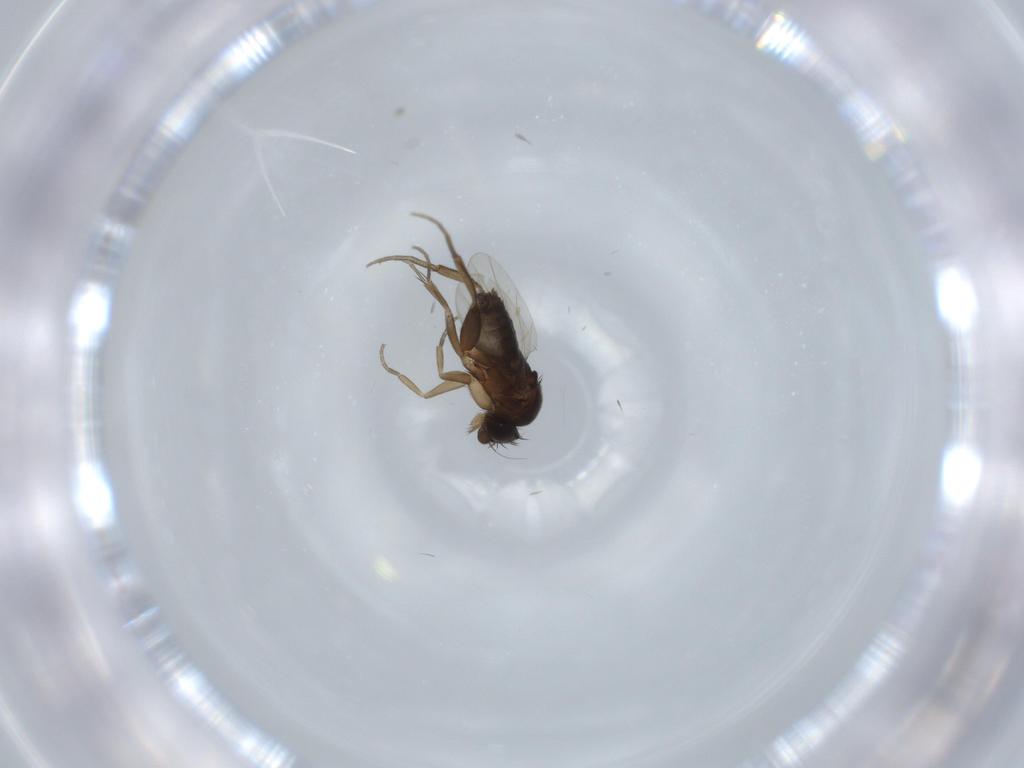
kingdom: Animalia
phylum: Arthropoda
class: Insecta
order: Diptera
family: Phoridae
